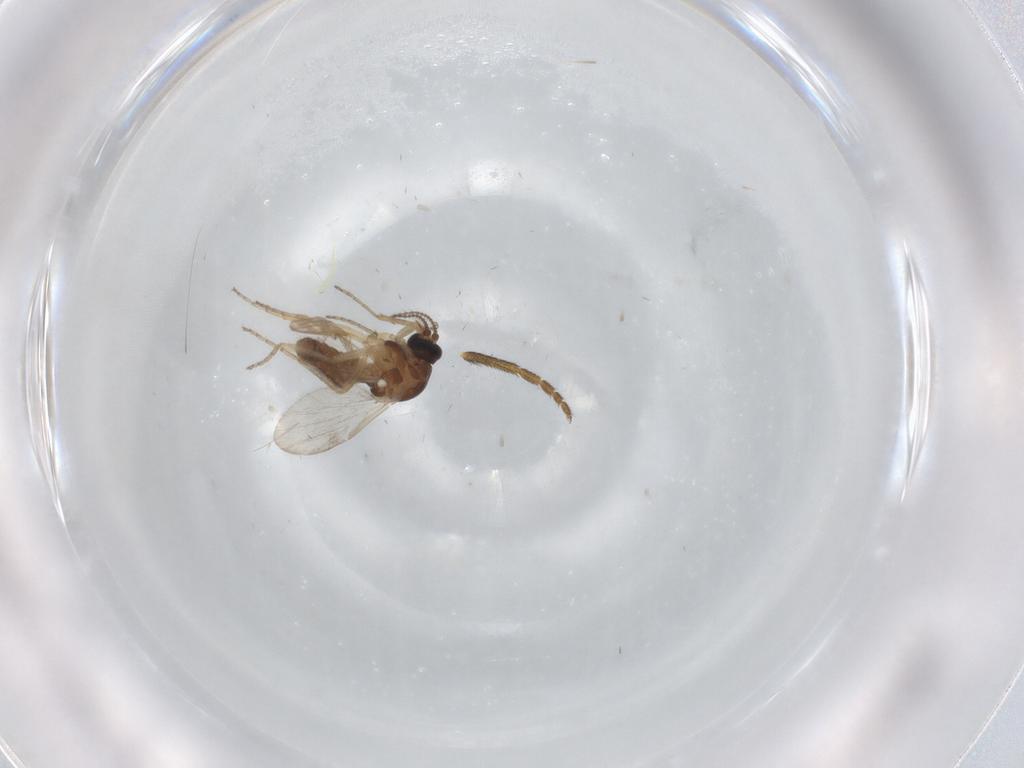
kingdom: Animalia
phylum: Arthropoda
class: Insecta
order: Diptera
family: Ceratopogonidae
